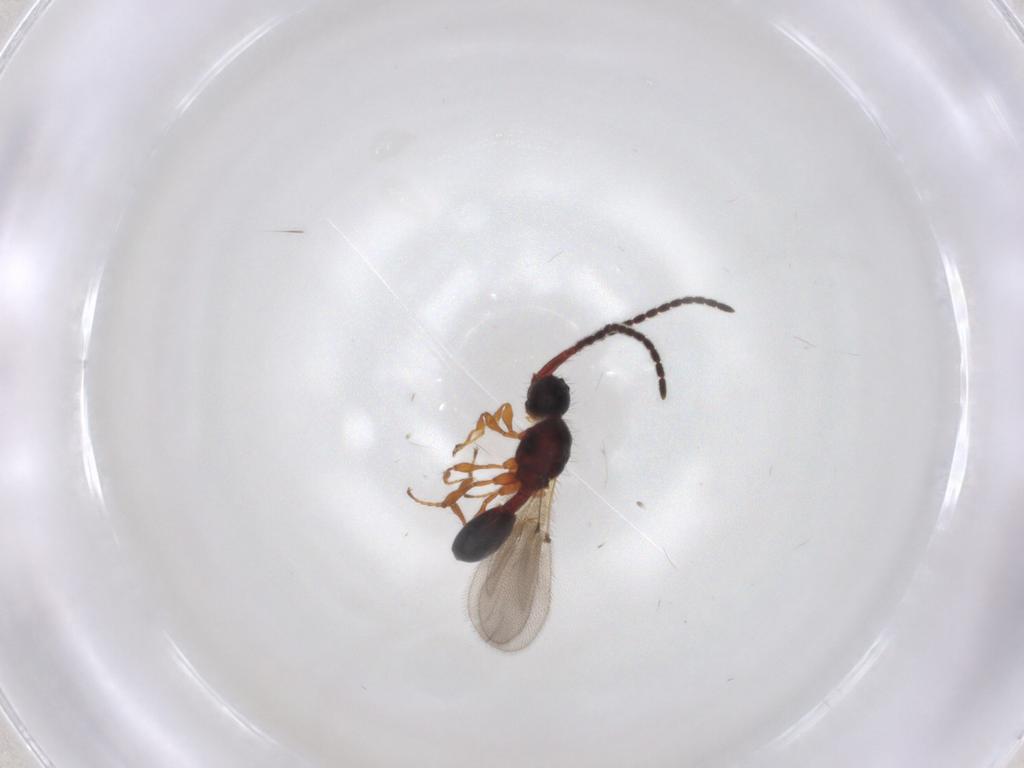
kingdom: Animalia
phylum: Arthropoda
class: Insecta
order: Hymenoptera
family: Diapriidae
